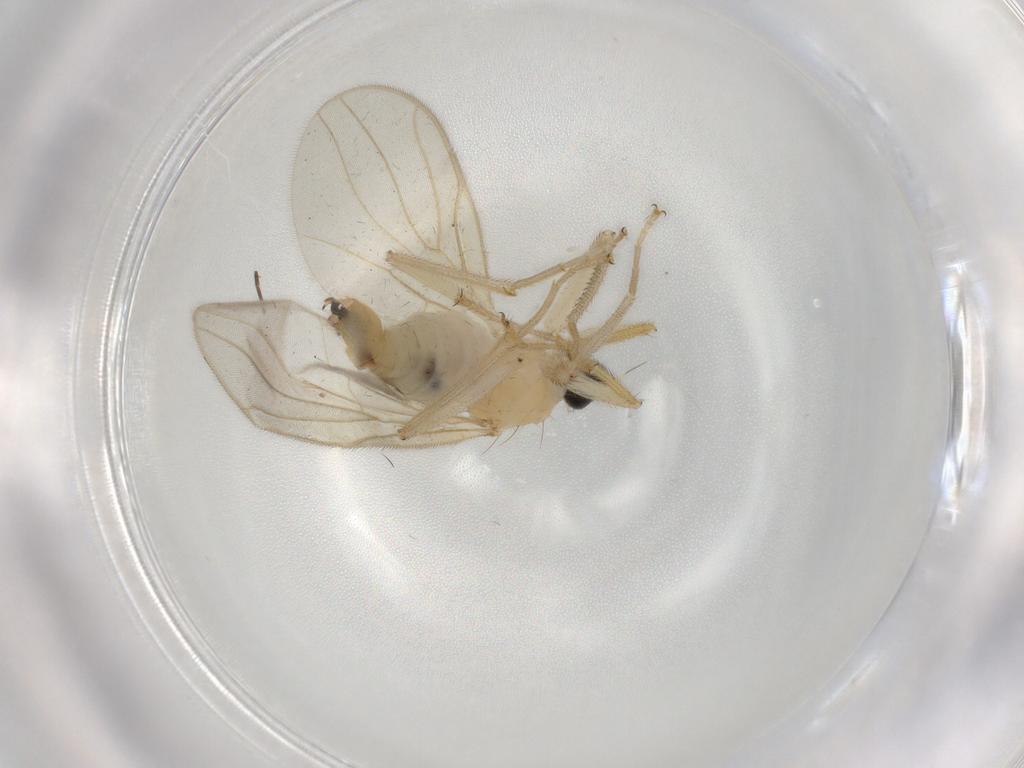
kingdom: Animalia
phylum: Arthropoda
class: Insecta
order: Diptera
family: Hybotidae
